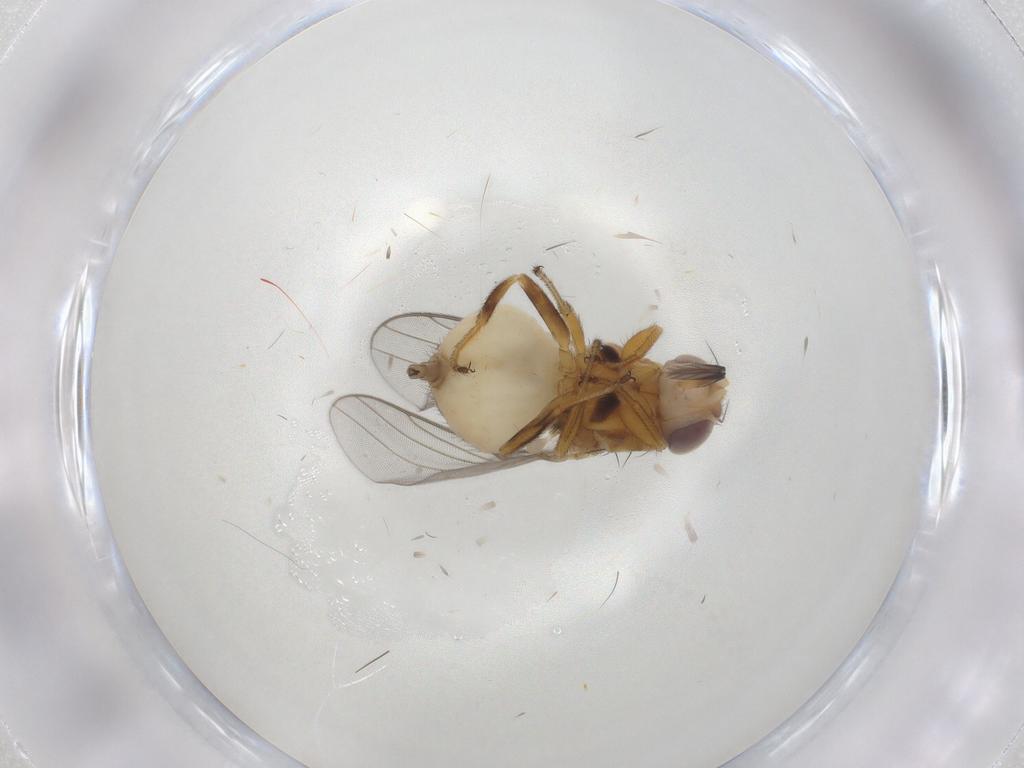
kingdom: Animalia
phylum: Arthropoda
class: Insecta
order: Diptera
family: Chloropidae
